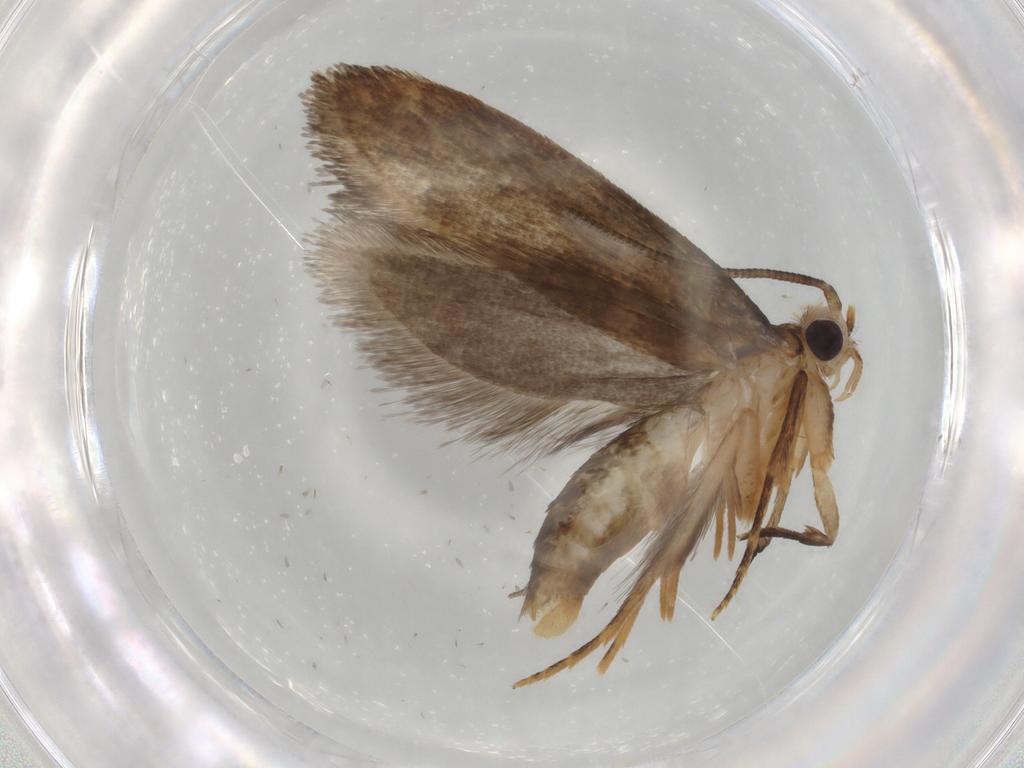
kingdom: Animalia
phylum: Arthropoda
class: Insecta
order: Lepidoptera
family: Tineidae
